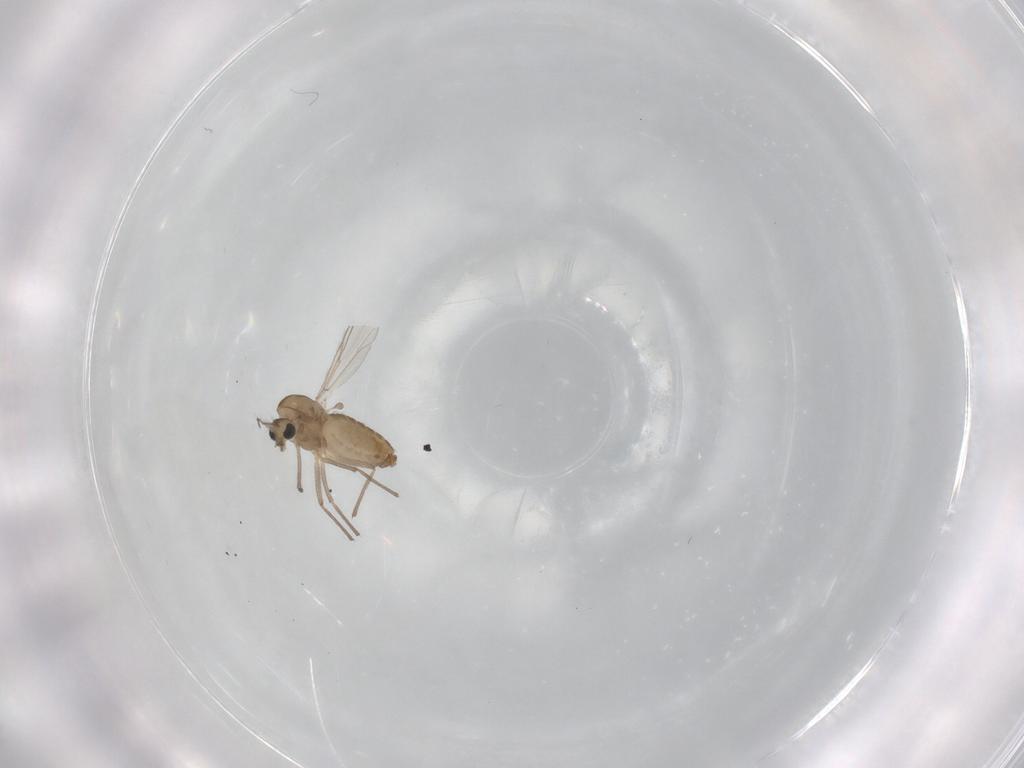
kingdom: Animalia
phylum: Arthropoda
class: Insecta
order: Diptera
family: Chironomidae
